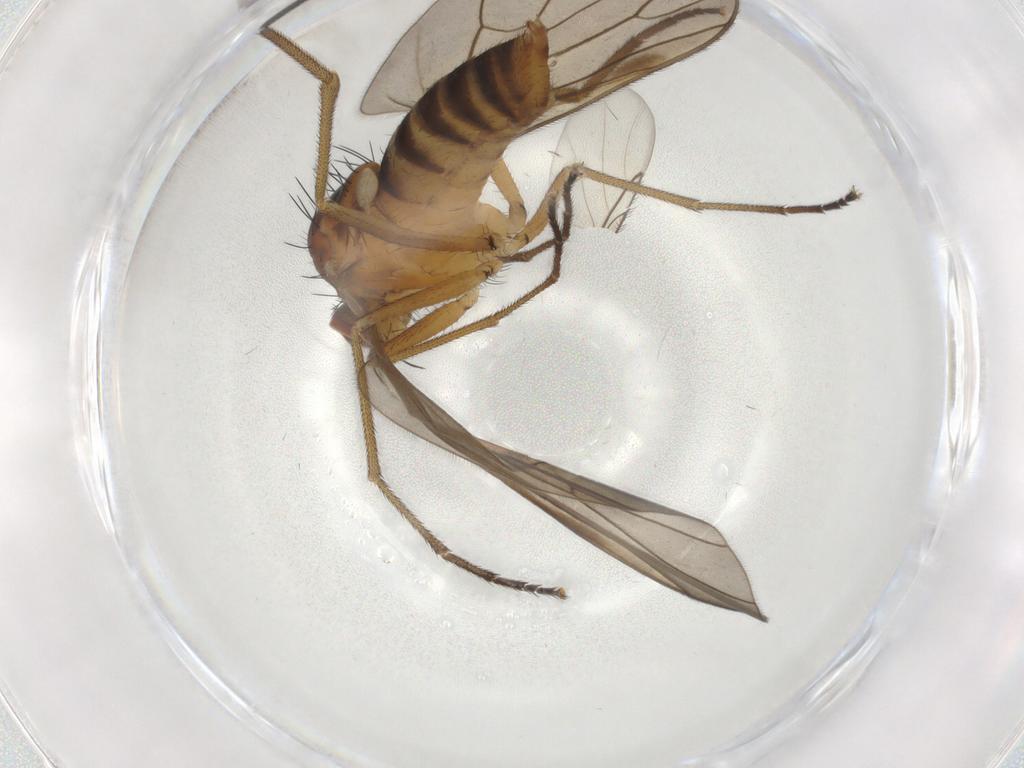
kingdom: Animalia
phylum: Arthropoda
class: Insecta
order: Diptera
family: Brachystomatidae
